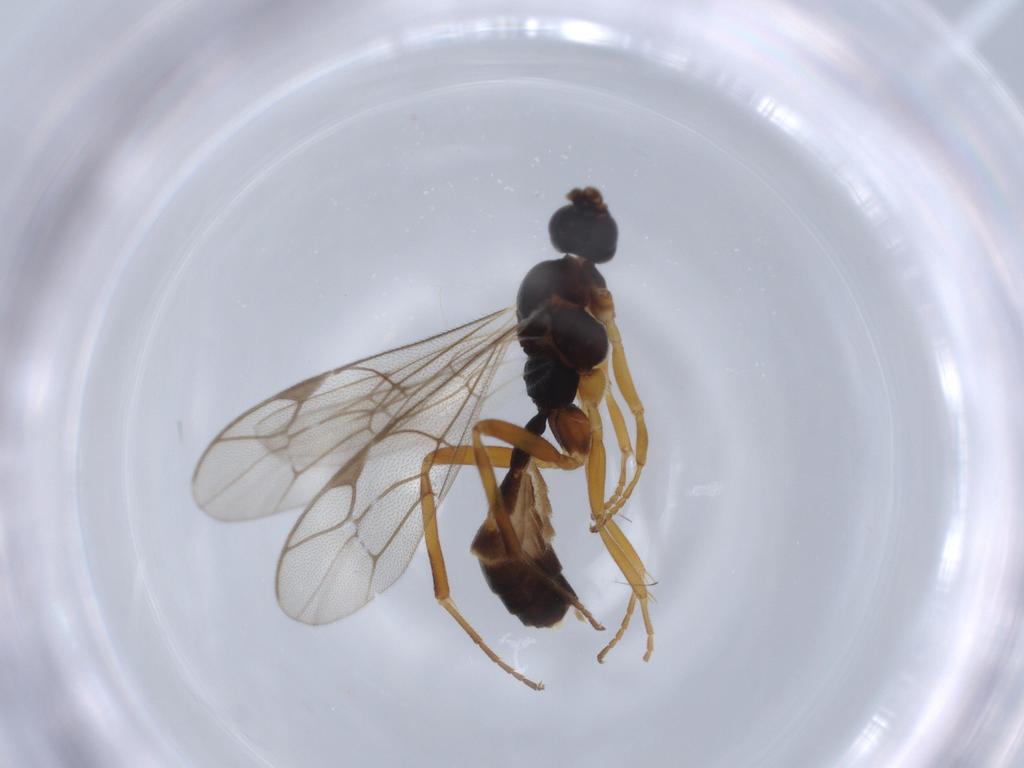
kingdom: Animalia
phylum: Arthropoda
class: Insecta
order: Hymenoptera
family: Ichneumonidae
